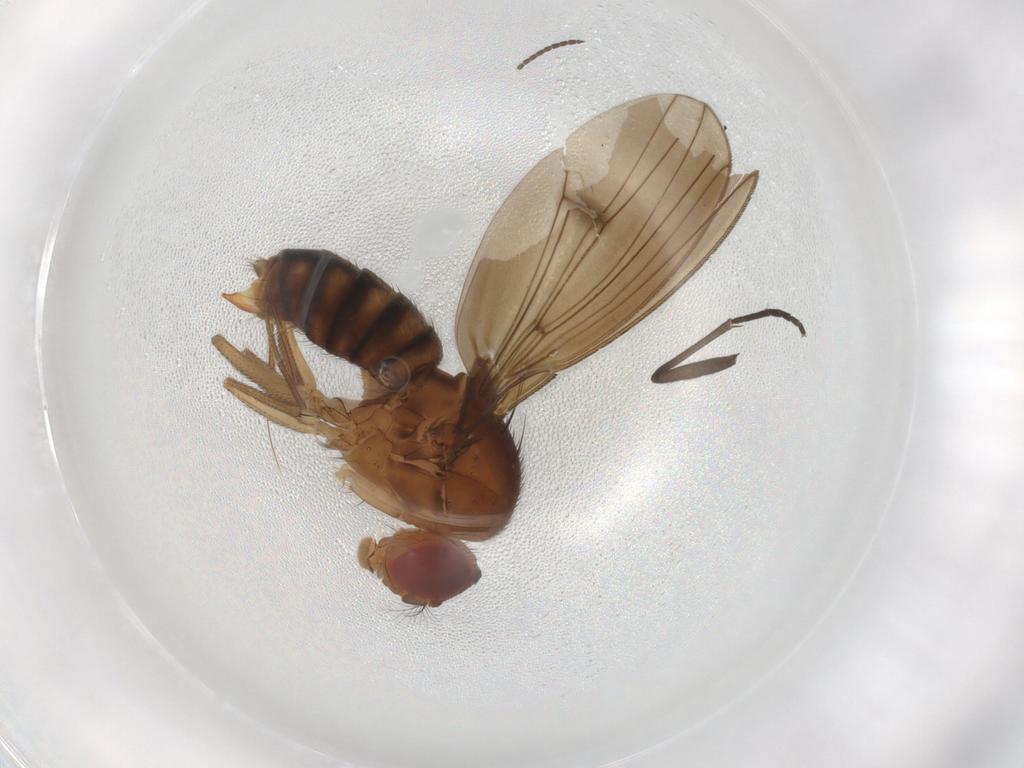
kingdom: Animalia
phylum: Arthropoda
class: Insecta
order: Diptera
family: Drosophilidae
